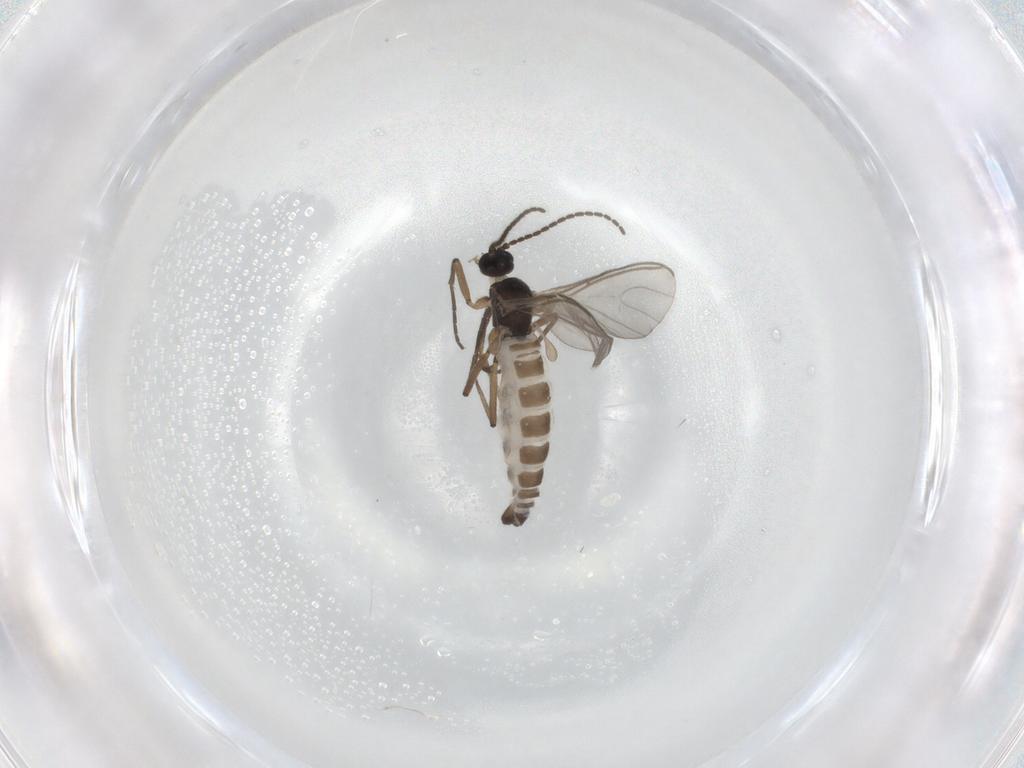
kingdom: Animalia
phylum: Arthropoda
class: Insecta
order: Diptera
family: Sciaridae
